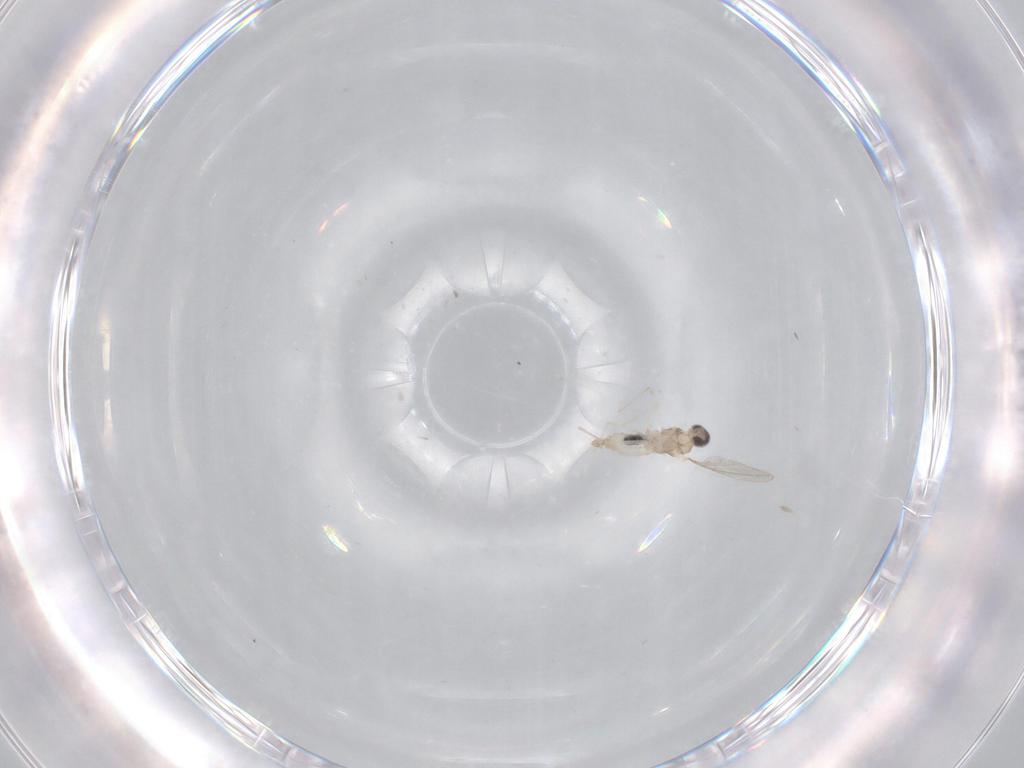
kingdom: Animalia
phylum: Arthropoda
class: Insecta
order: Diptera
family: Cecidomyiidae
